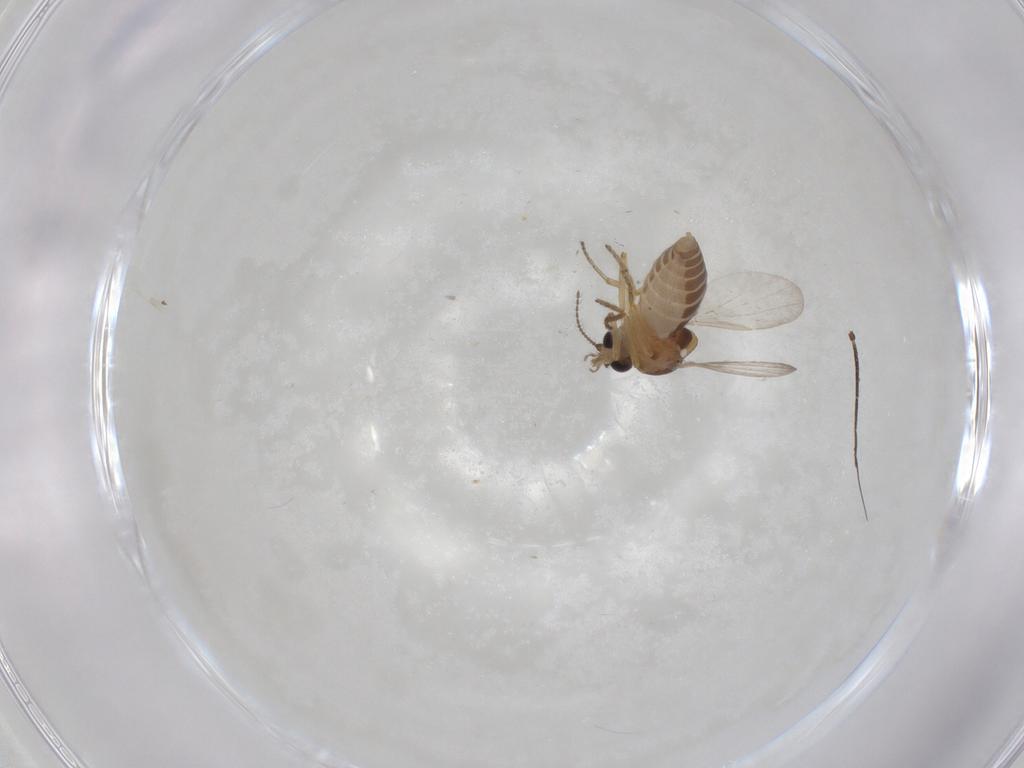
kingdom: Animalia
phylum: Arthropoda
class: Insecta
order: Diptera
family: Ceratopogonidae
